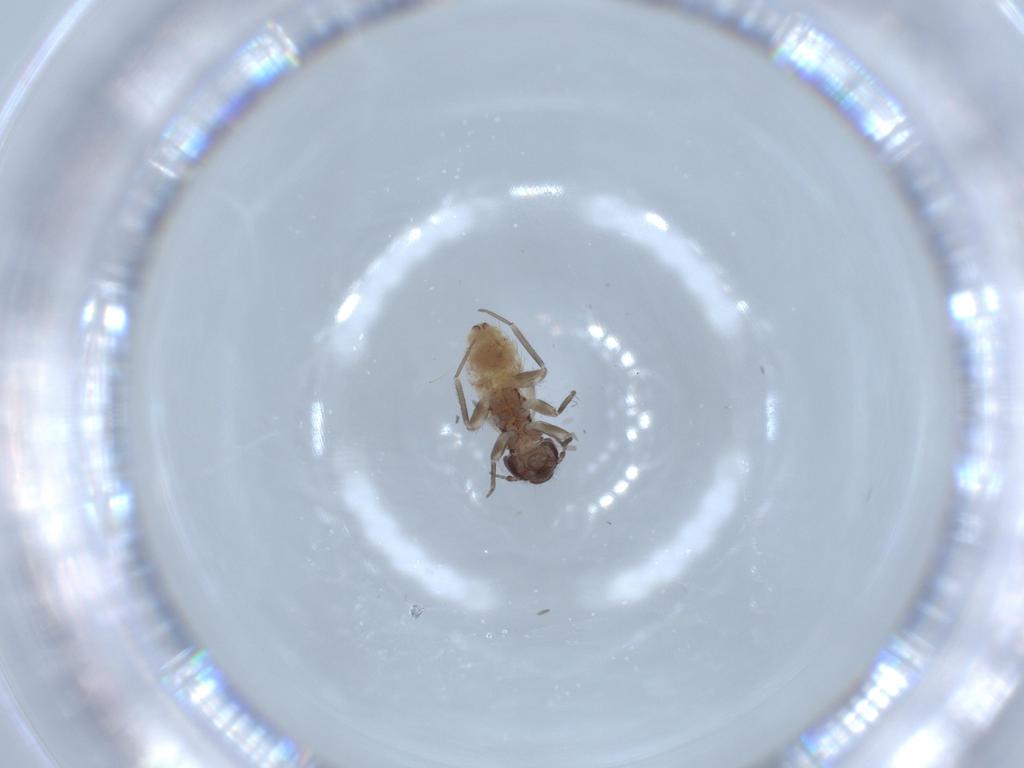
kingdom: Animalia
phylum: Arthropoda
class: Insecta
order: Psocodea
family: Lepidopsocidae
